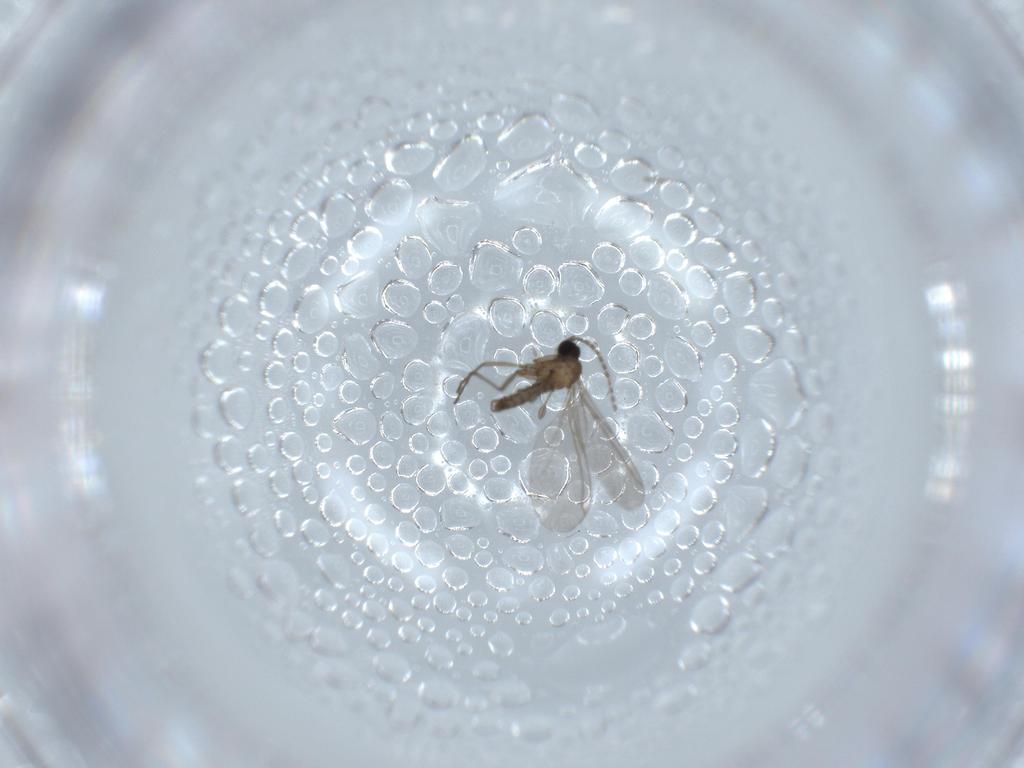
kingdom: Animalia
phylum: Arthropoda
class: Insecta
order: Diptera
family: Sciaridae
